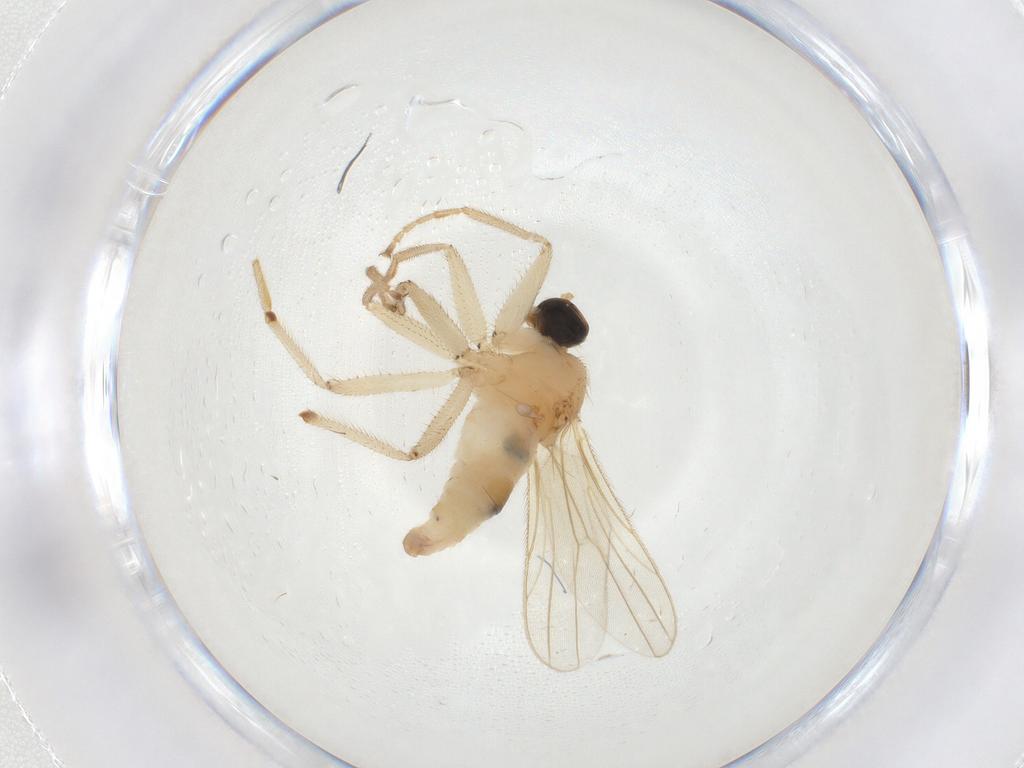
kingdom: Animalia
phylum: Arthropoda
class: Insecta
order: Diptera
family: Hybotidae
